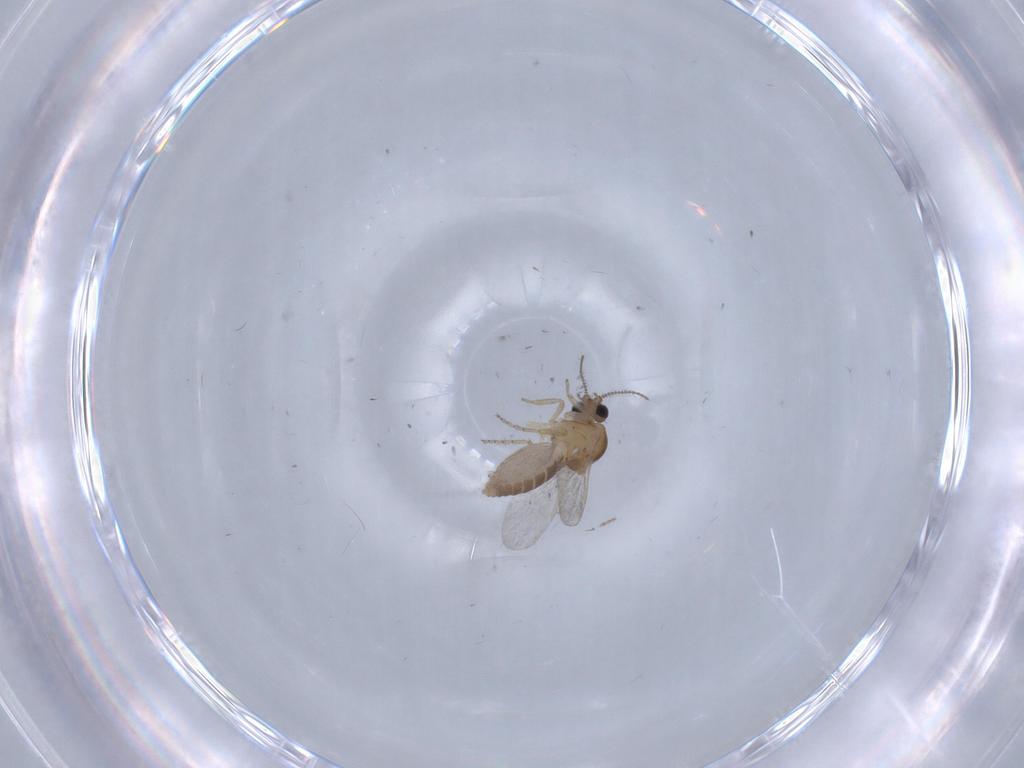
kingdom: Animalia
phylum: Arthropoda
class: Insecta
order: Diptera
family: Ceratopogonidae
